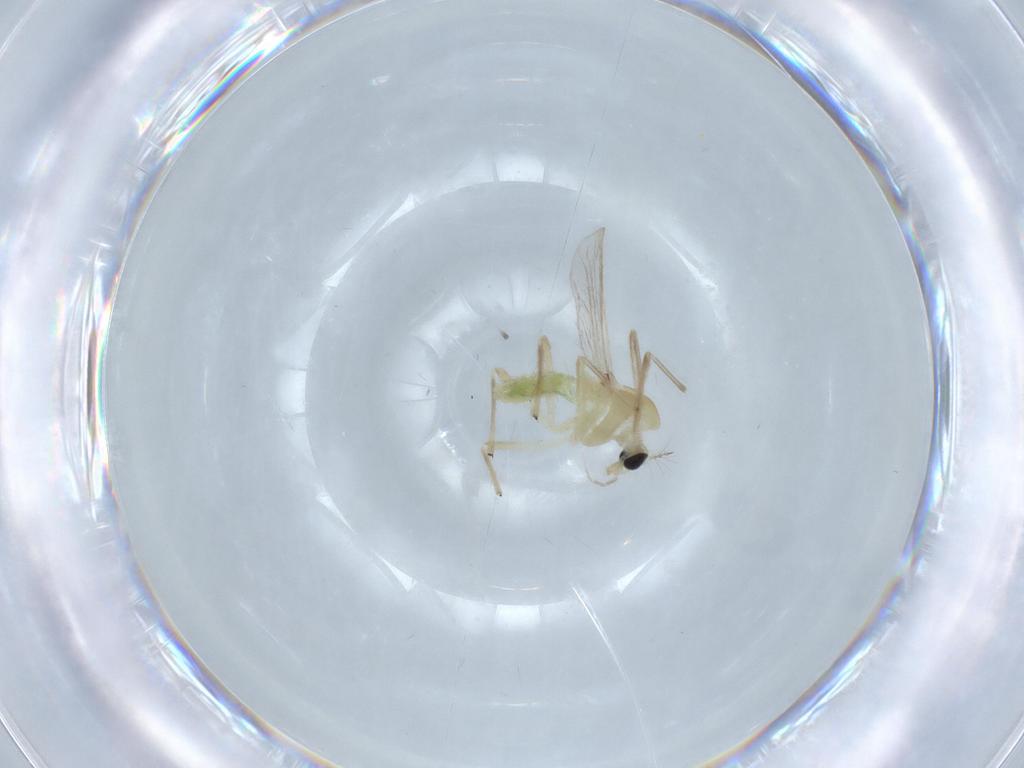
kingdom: Animalia
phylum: Arthropoda
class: Insecta
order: Diptera
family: Chironomidae
